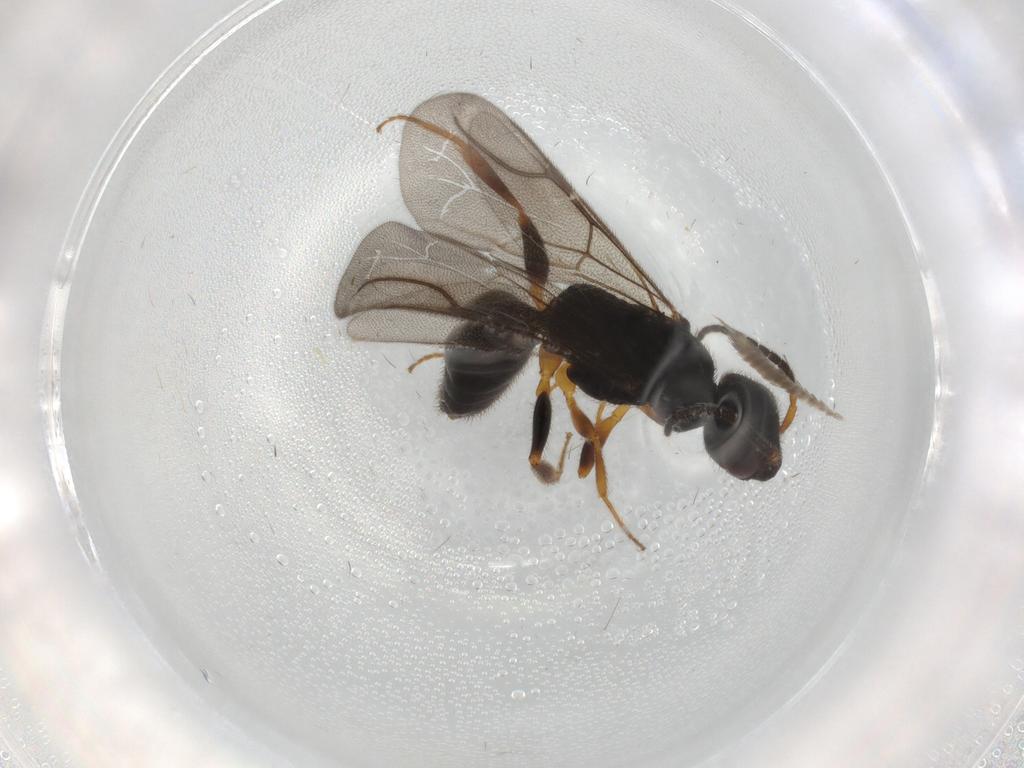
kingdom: Animalia
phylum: Arthropoda
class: Insecta
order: Hymenoptera
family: Bethylidae
